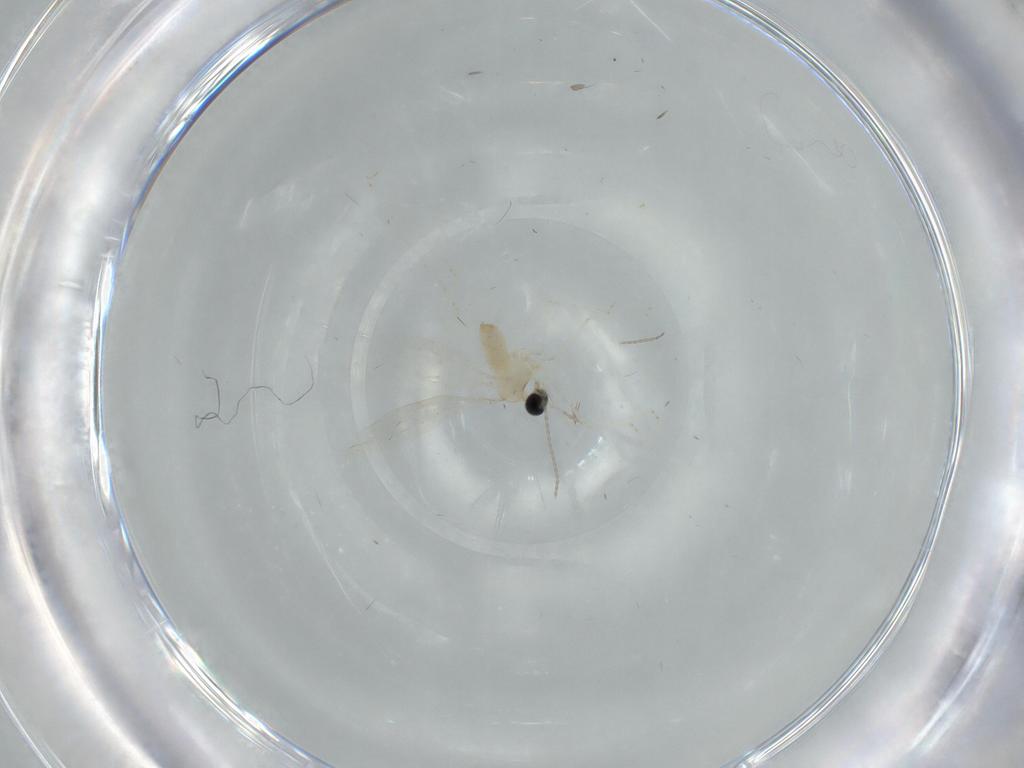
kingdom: Animalia
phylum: Arthropoda
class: Insecta
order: Diptera
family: Cecidomyiidae
